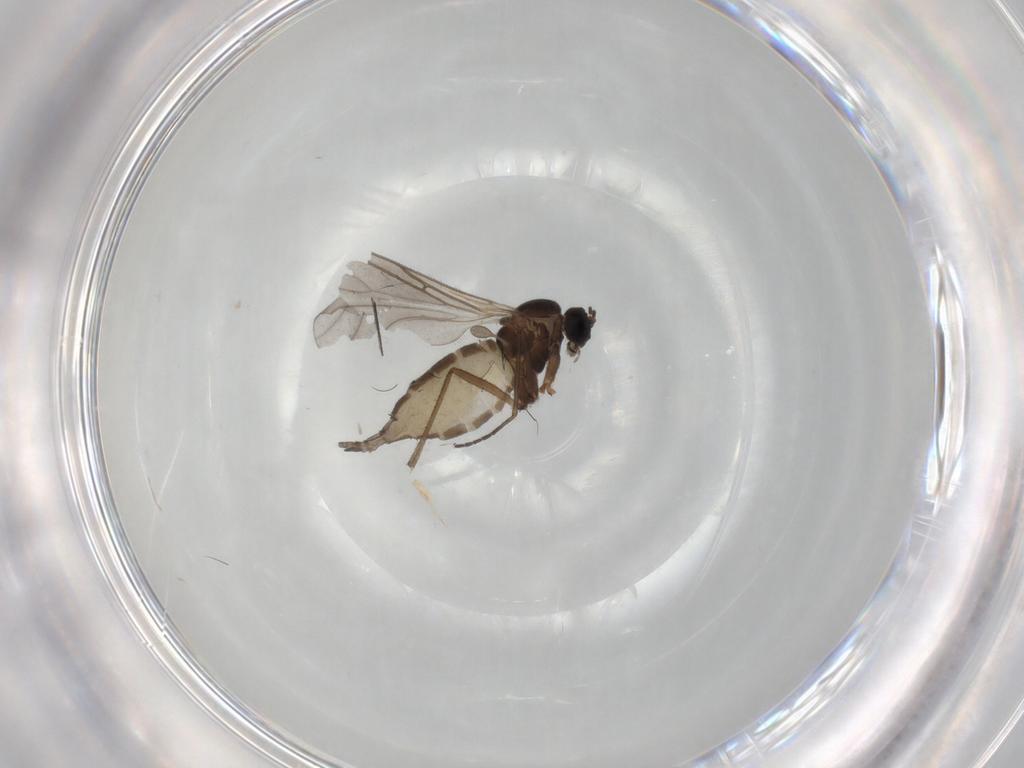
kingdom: Animalia
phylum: Arthropoda
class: Insecta
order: Diptera
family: Sciaridae
